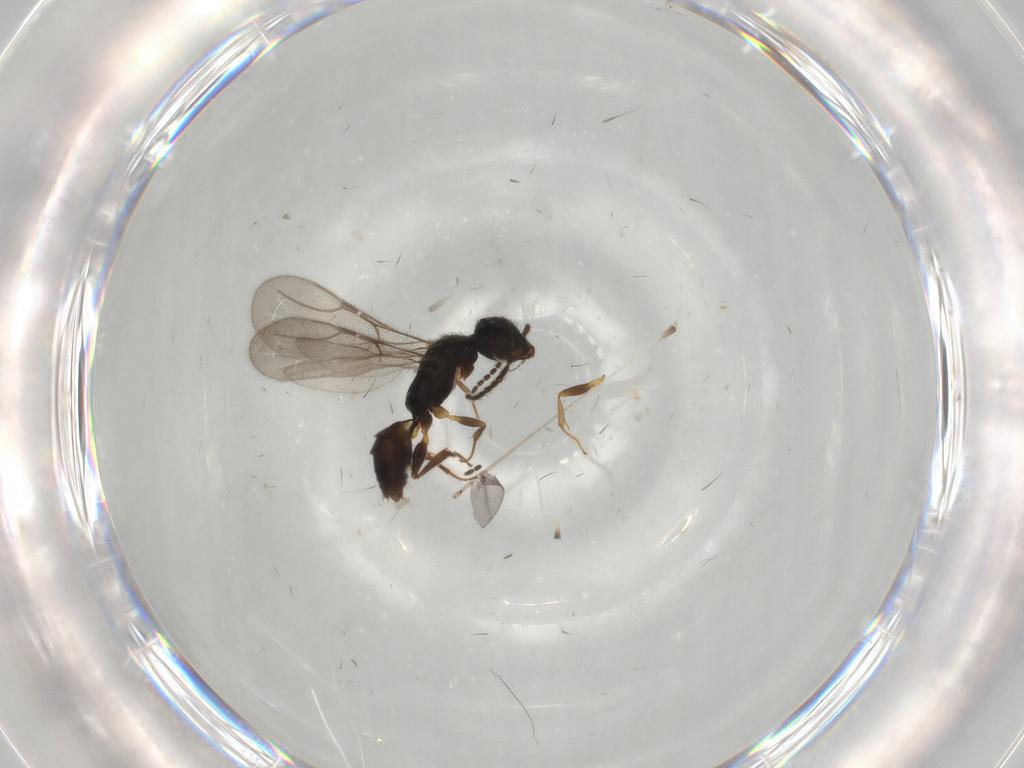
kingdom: Animalia
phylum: Arthropoda
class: Insecta
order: Hymenoptera
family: Bethylidae
